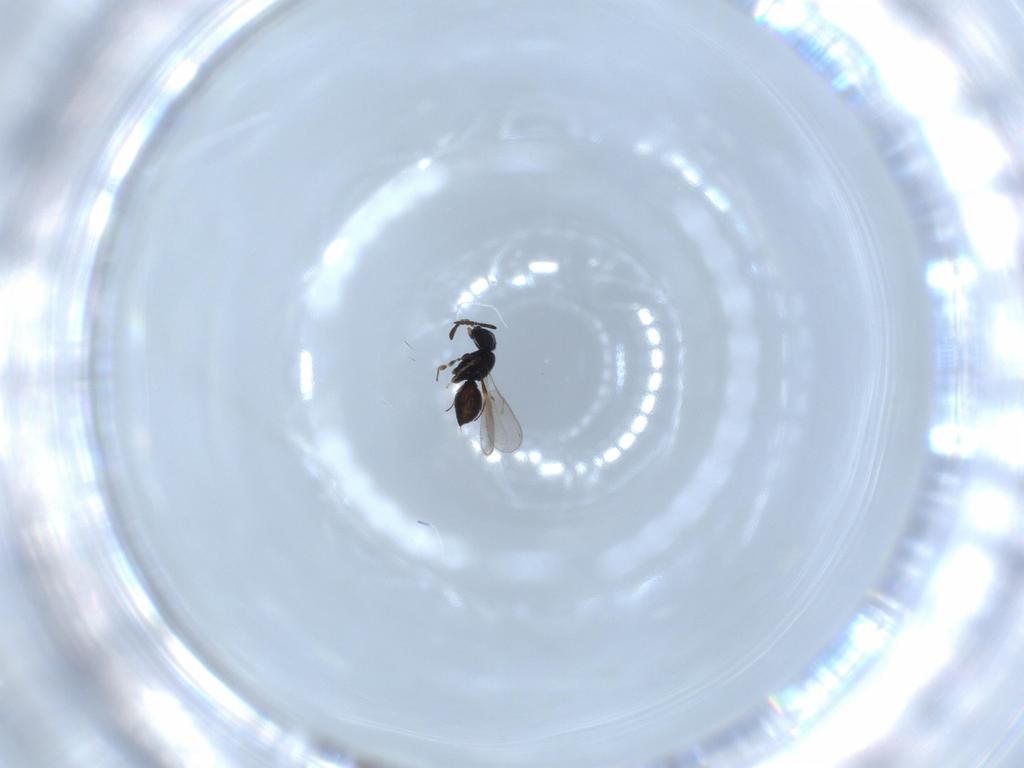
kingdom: Animalia
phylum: Arthropoda
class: Insecta
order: Hymenoptera
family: Scelionidae
